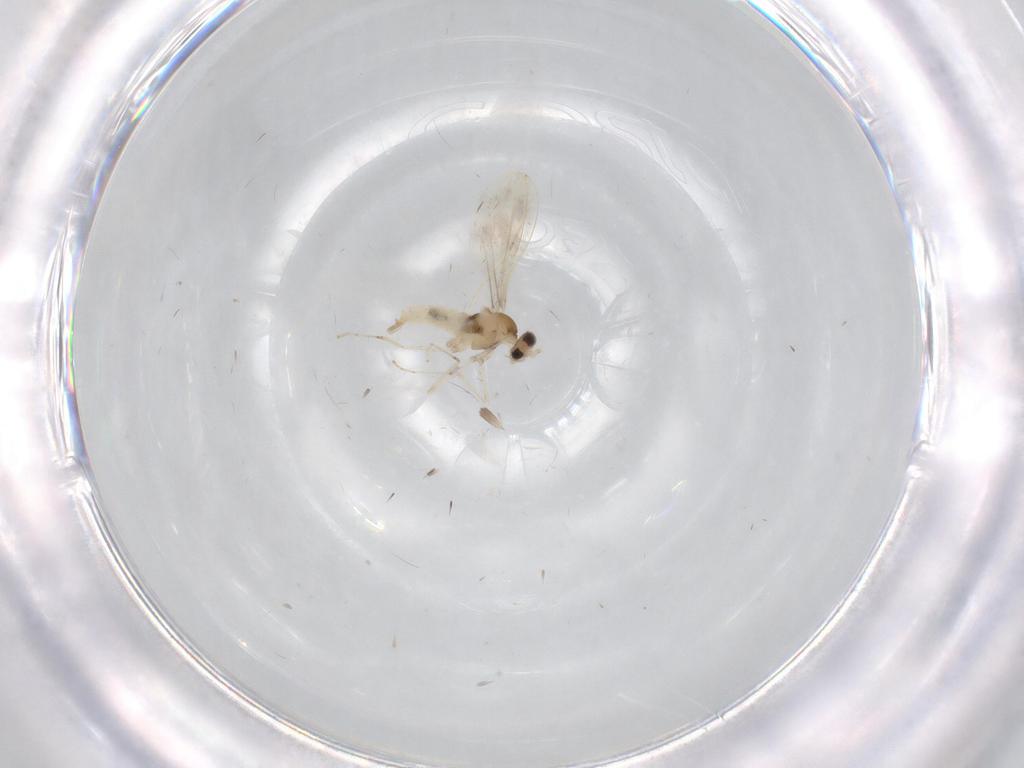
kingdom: Animalia
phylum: Arthropoda
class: Insecta
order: Diptera
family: Cecidomyiidae
